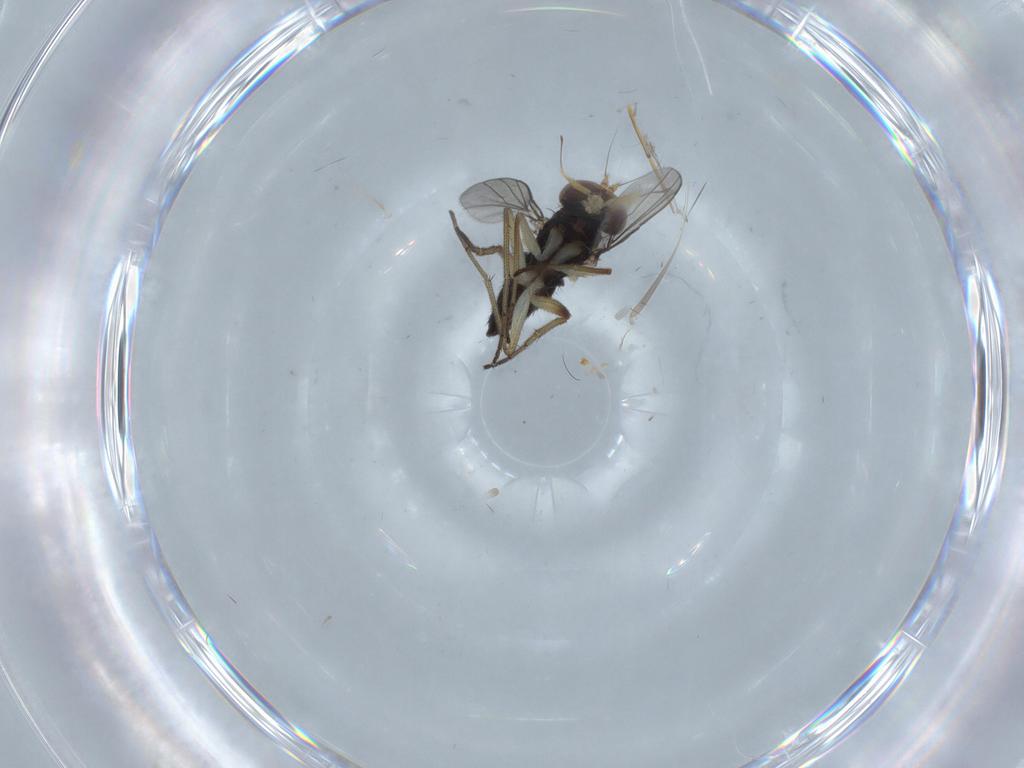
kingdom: Animalia
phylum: Arthropoda
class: Insecta
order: Diptera
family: Dolichopodidae
